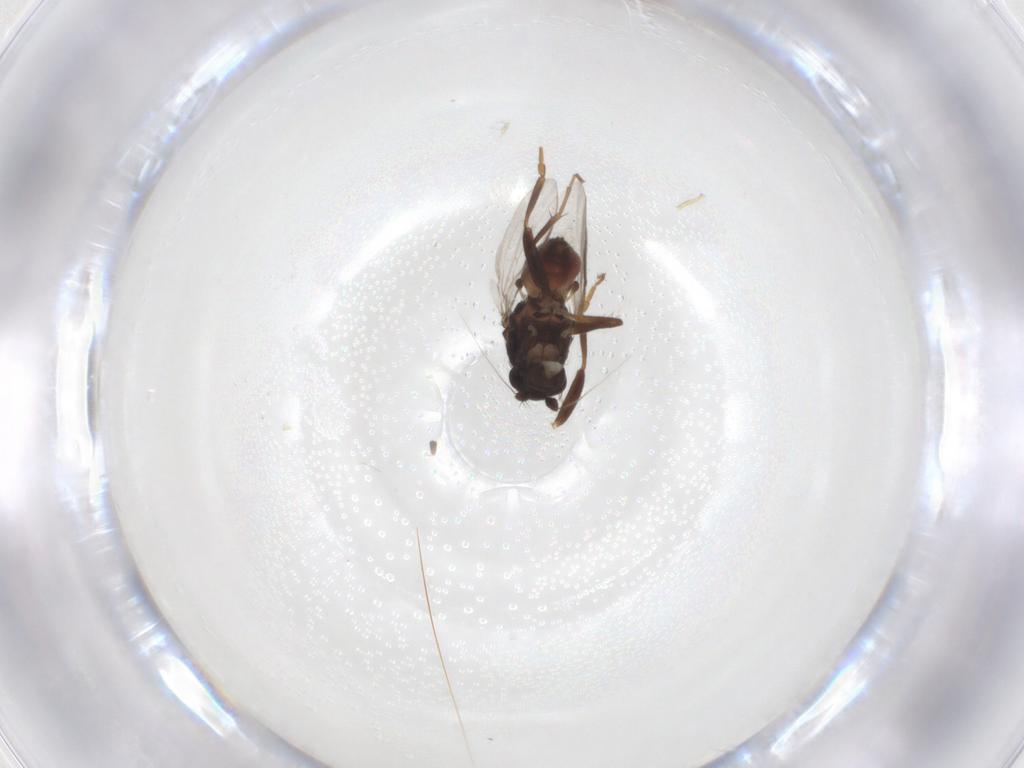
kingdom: Animalia
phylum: Arthropoda
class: Insecta
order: Diptera
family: Sphaeroceridae
